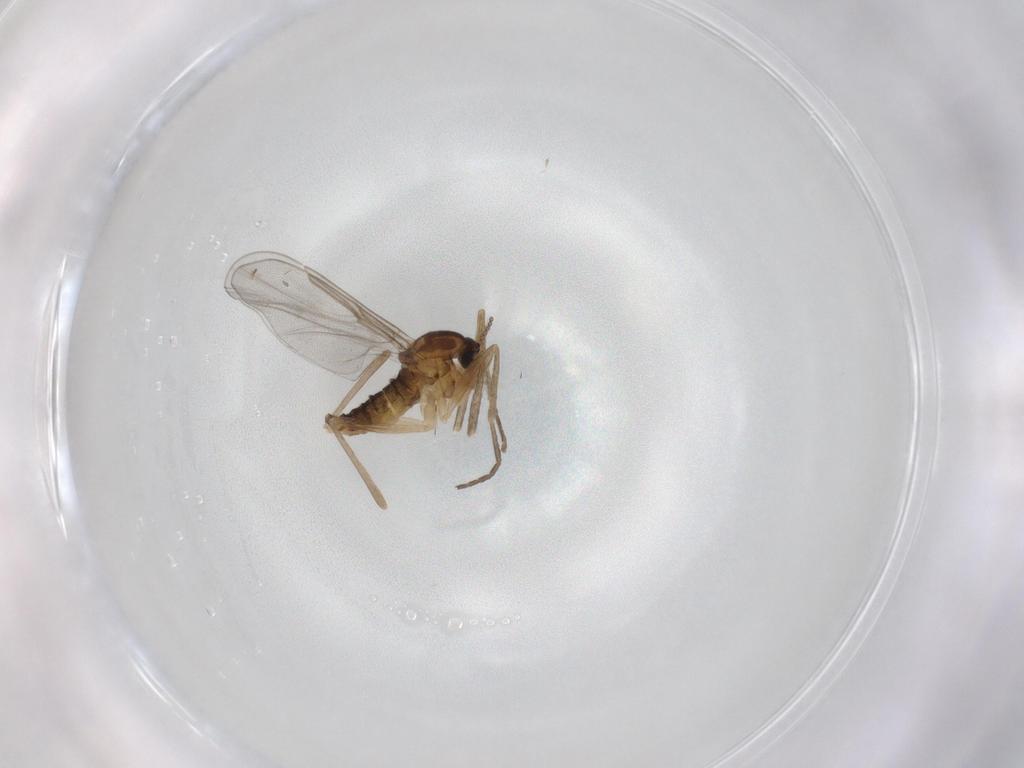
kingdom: Animalia
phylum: Arthropoda
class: Insecta
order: Diptera
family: Cecidomyiidae
